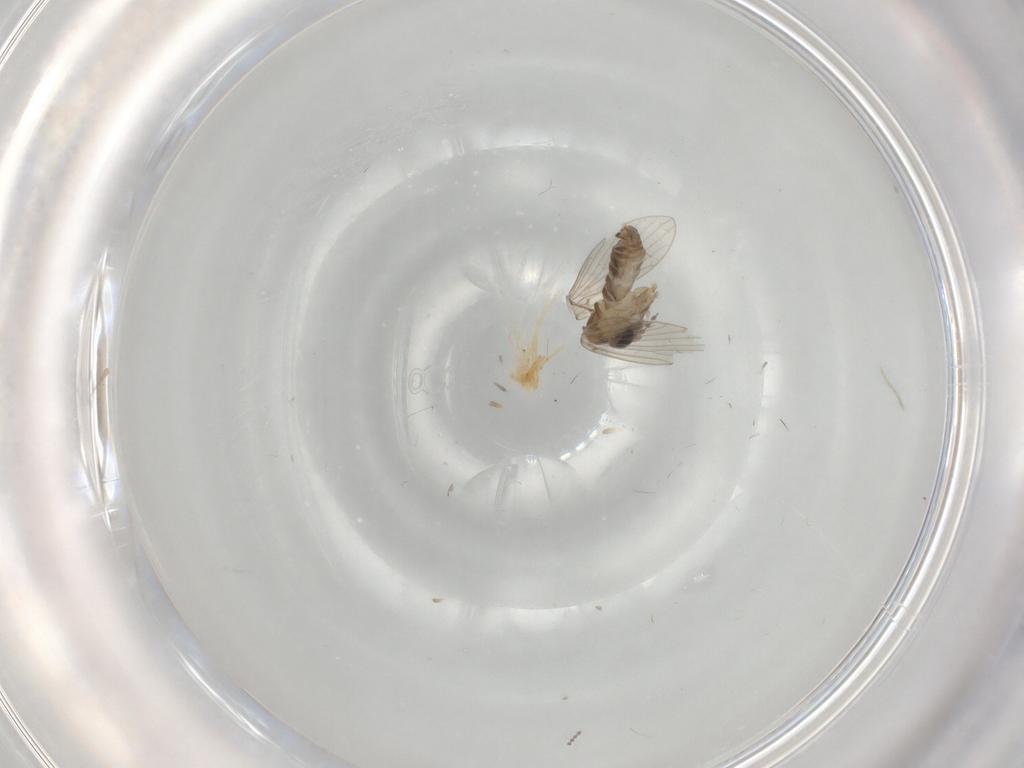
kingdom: Animalia
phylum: Arthropoda
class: Insecta
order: Diptera
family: Cecidomyiidae
